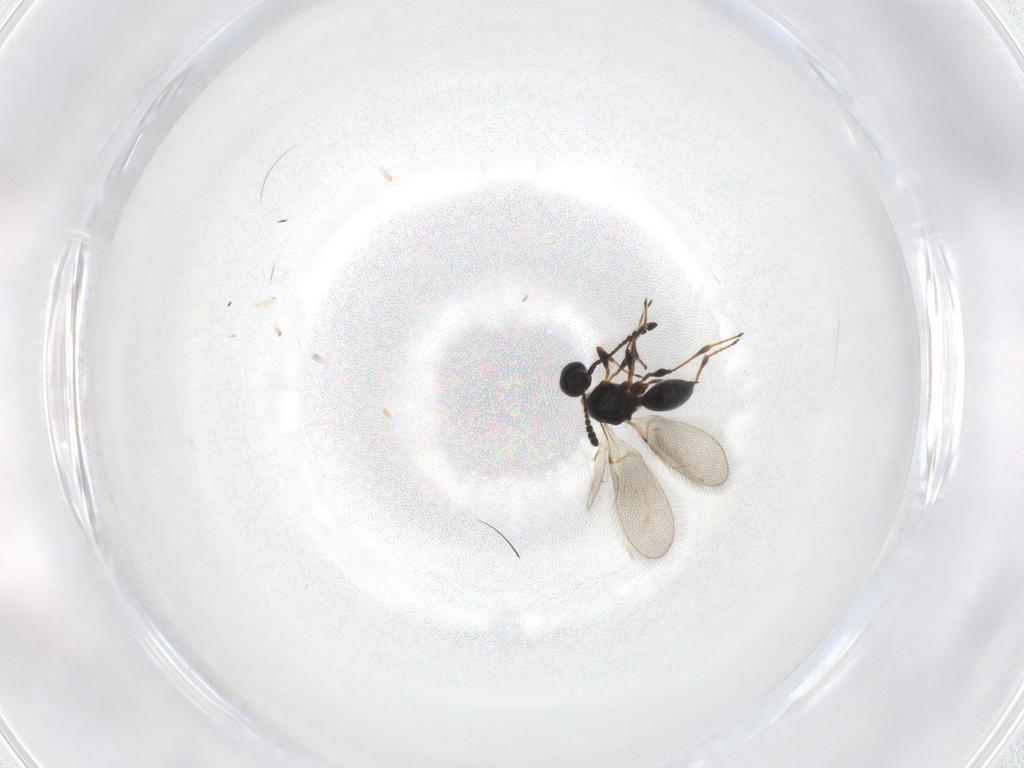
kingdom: Animalia
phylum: Arthropoda
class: Insecta
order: Hymenoptera
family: Diapriidae
